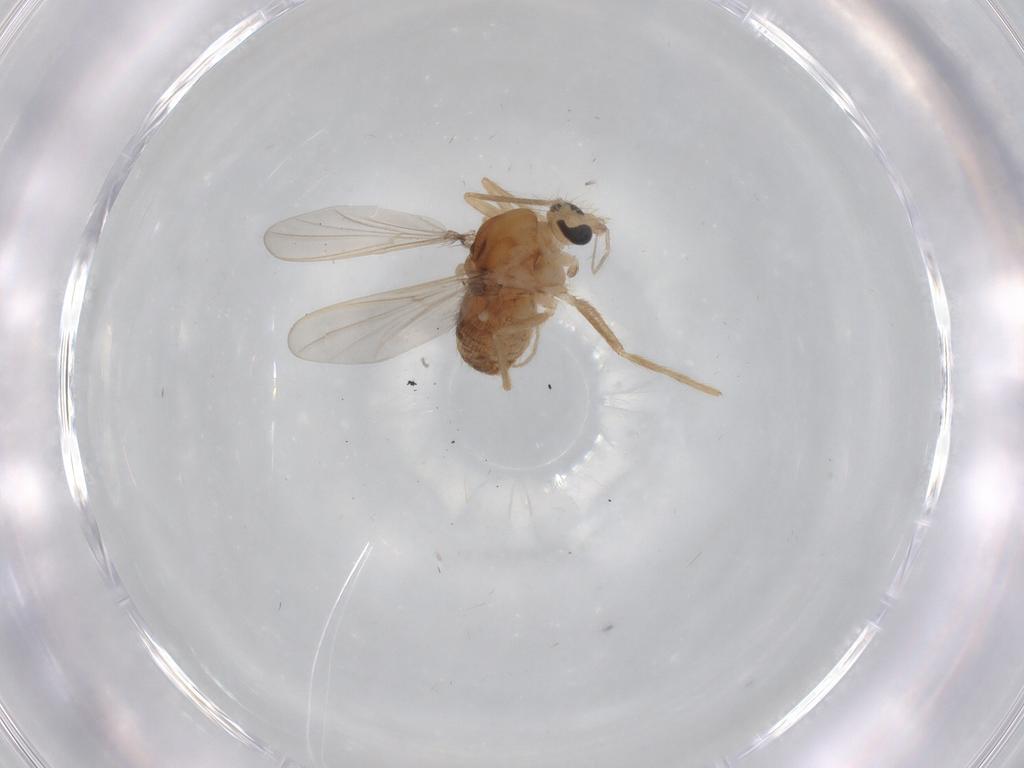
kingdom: Animalia
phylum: Arthropoda
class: Insecta
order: Diptera
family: Chironomidae
